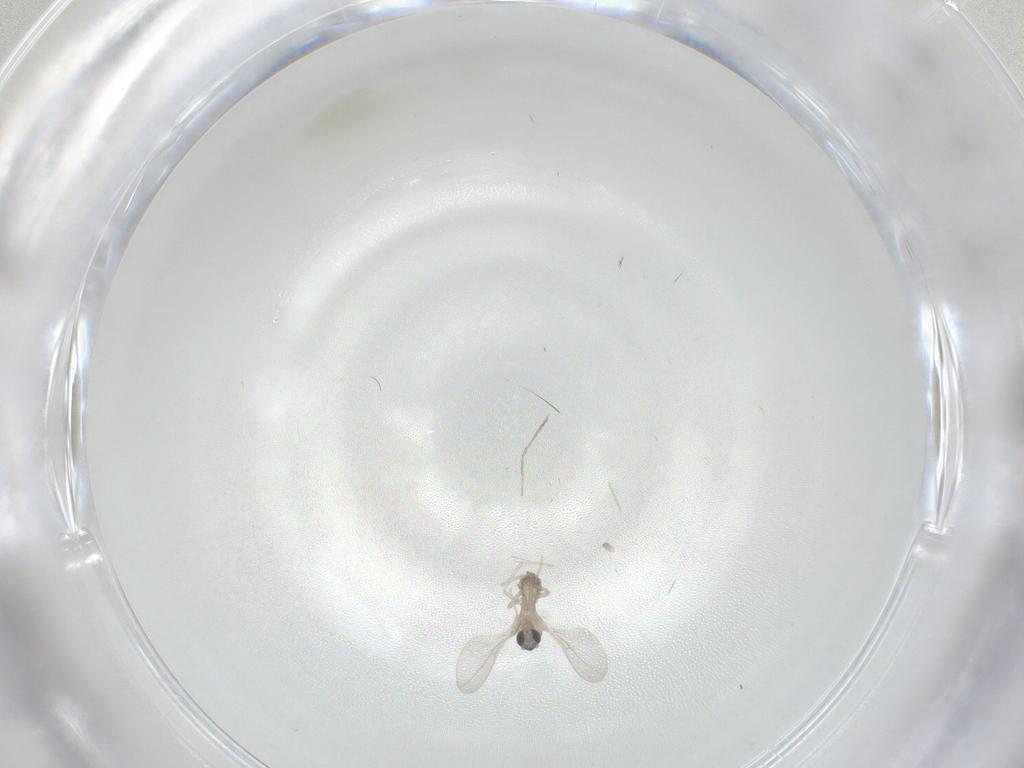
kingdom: Animalia
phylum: Arthropoda
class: Insecta
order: Diptera
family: Cecidomyiidae
